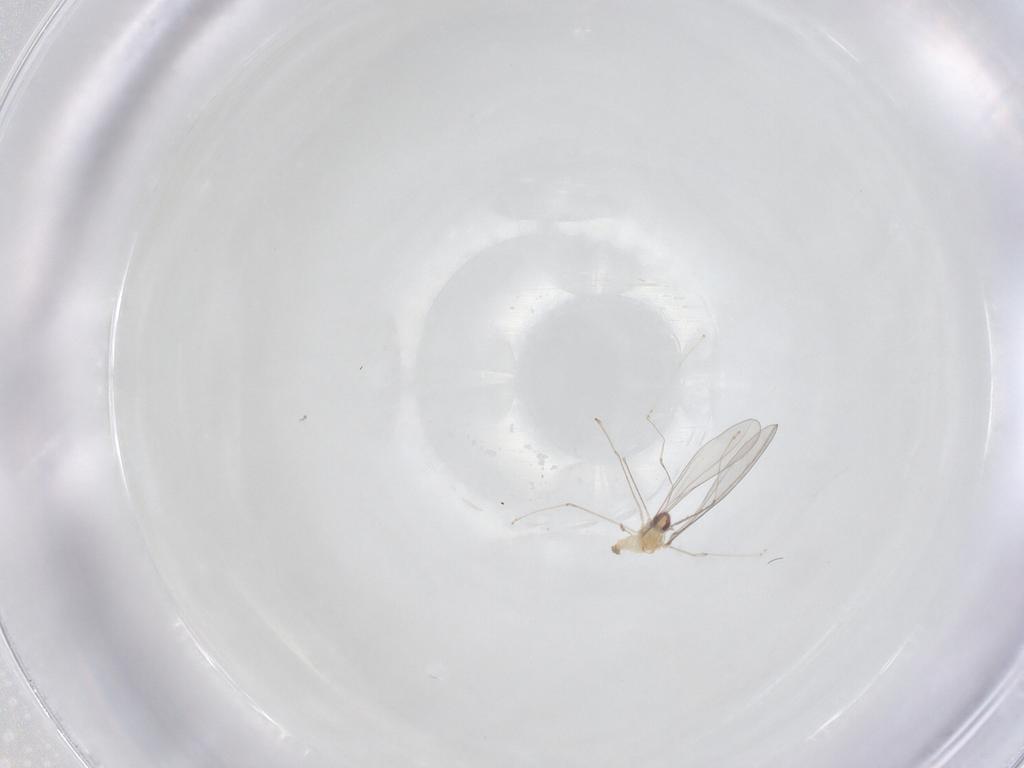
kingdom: Animalia
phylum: Arthropoda
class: Insecta
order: Diptera
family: Cecidomyiidae
